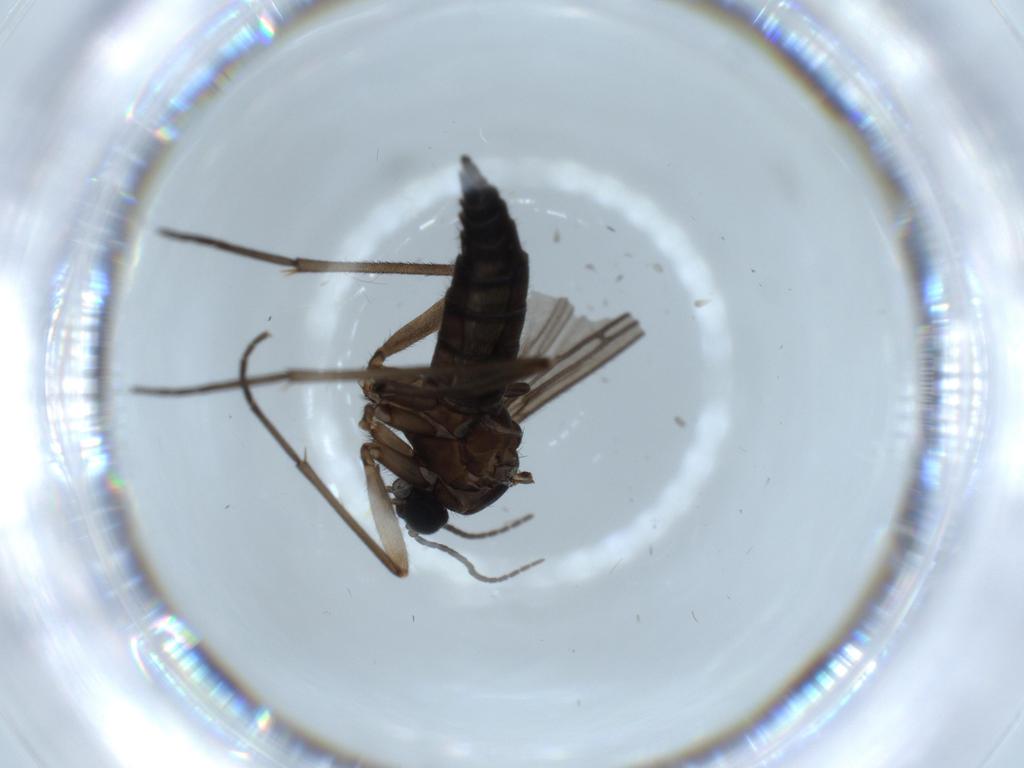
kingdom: Animalia
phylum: Arthropoda
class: Insecta
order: Diptera
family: Sciaridae
